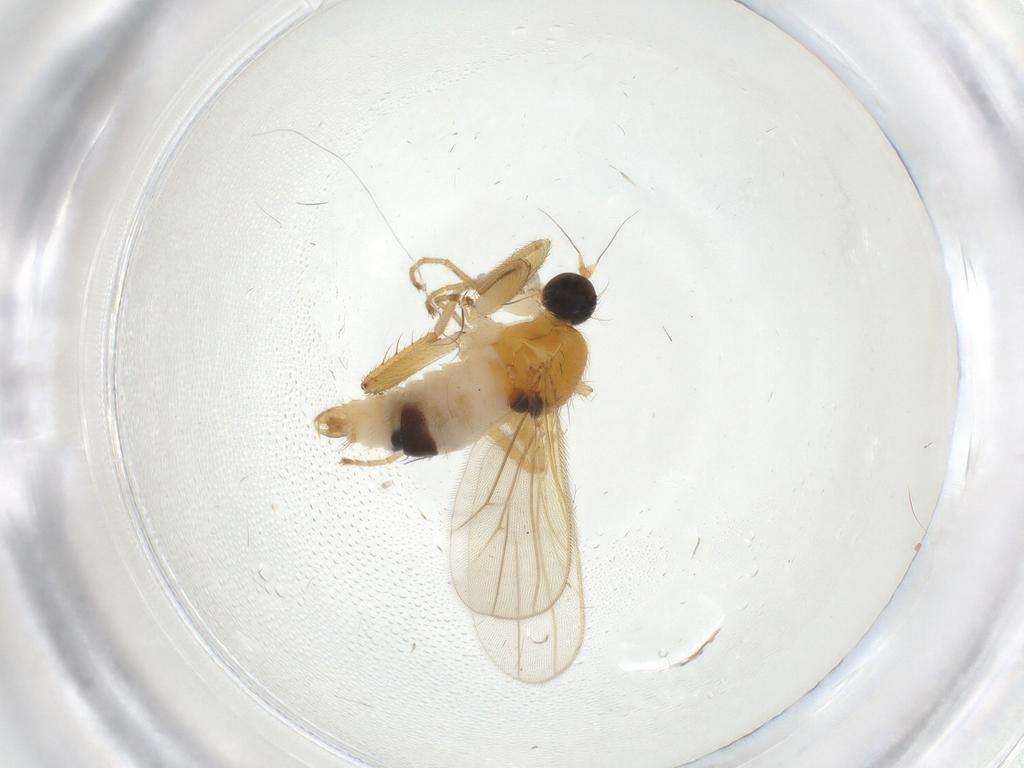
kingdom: Animalia
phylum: Arthropoda
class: Insecta
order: Diptera
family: Hybotidae
